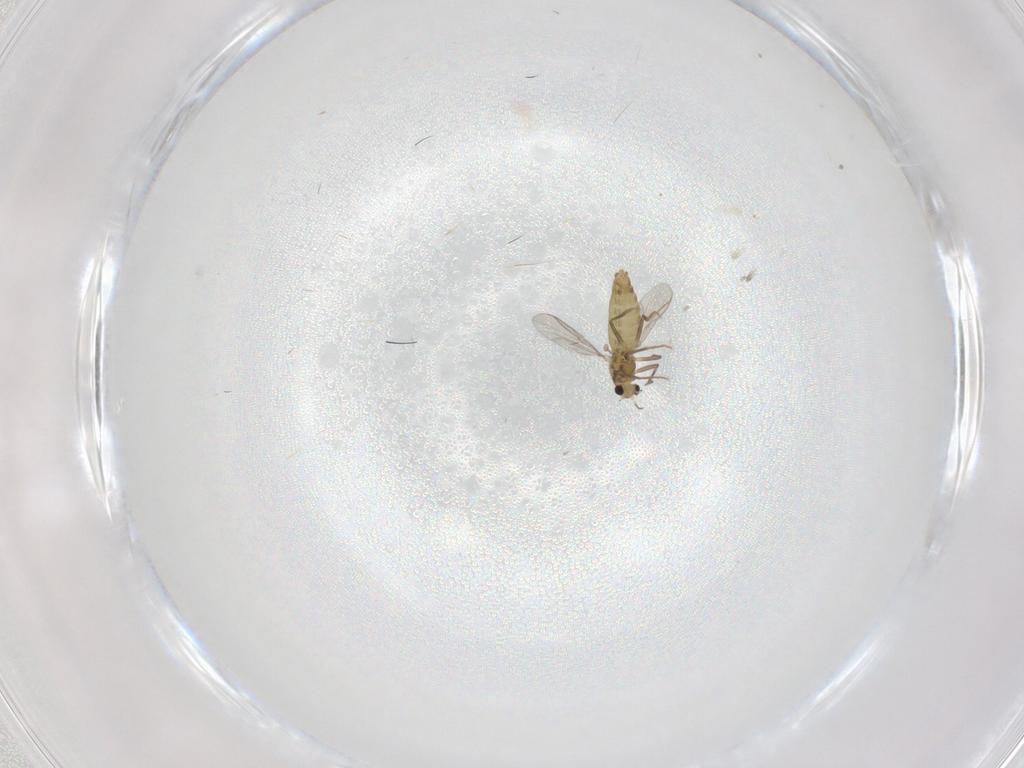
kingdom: Animalia
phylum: Arthropoda
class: Insecta
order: Diptera
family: Chironomidae
